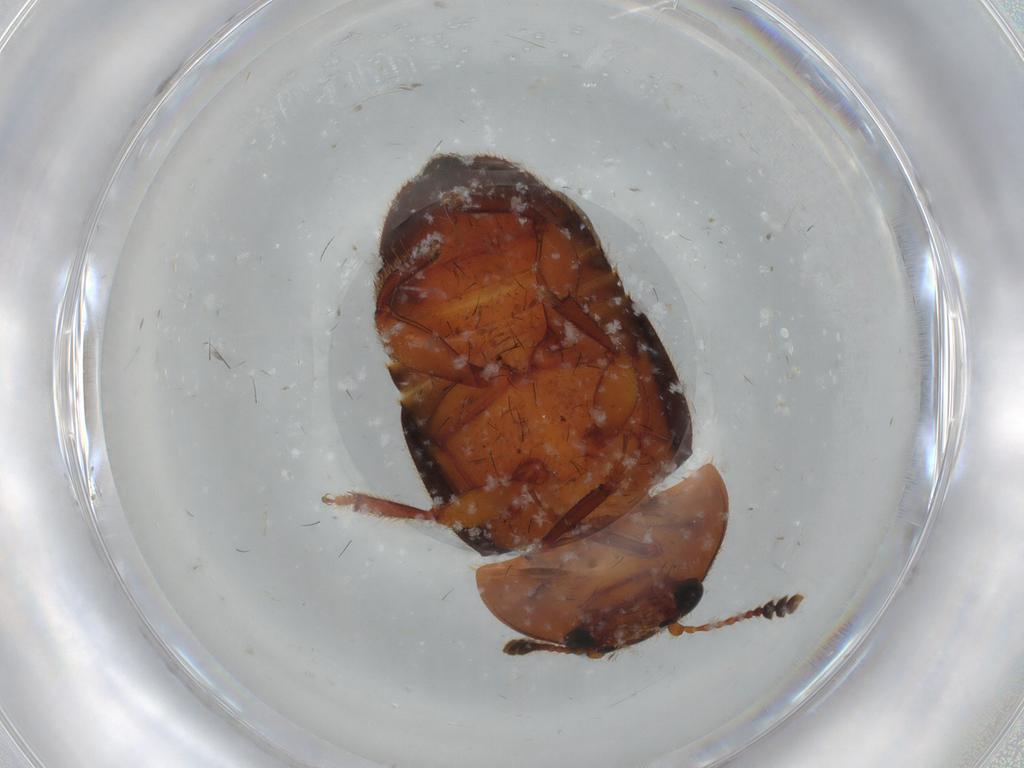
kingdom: Animalia
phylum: Arthropoda
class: Insecta
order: Coleoptera
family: Nitidulidae
